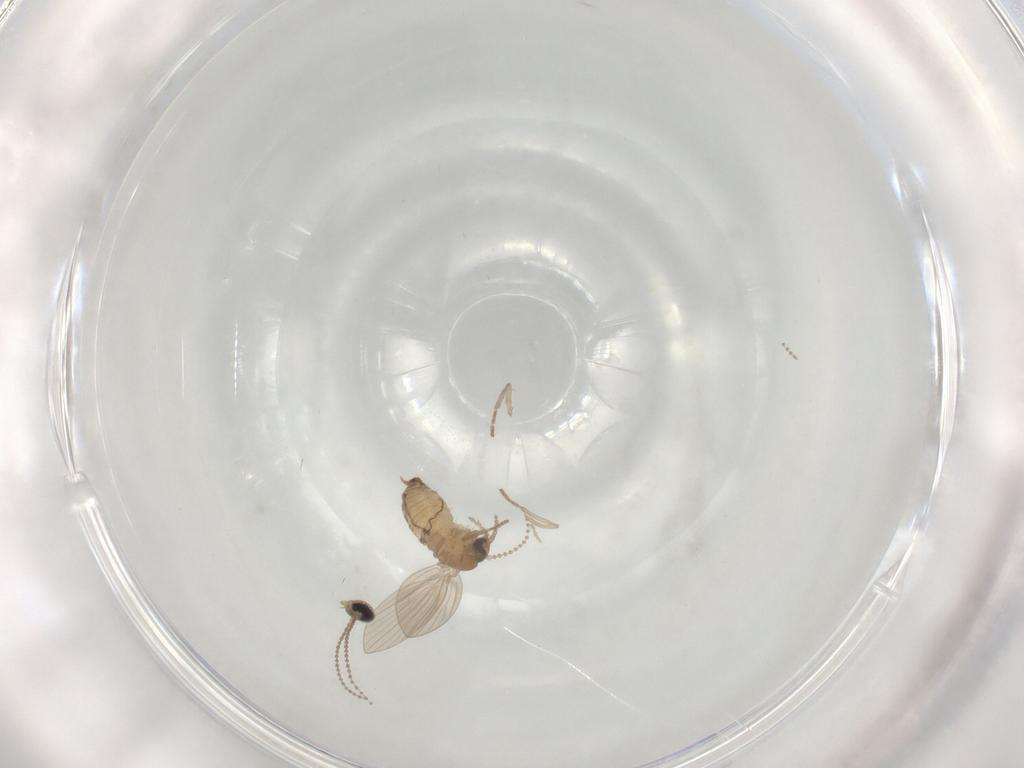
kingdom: Animalia
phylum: Arthropoda
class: Insecta
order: Diptera
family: Psychodidae
